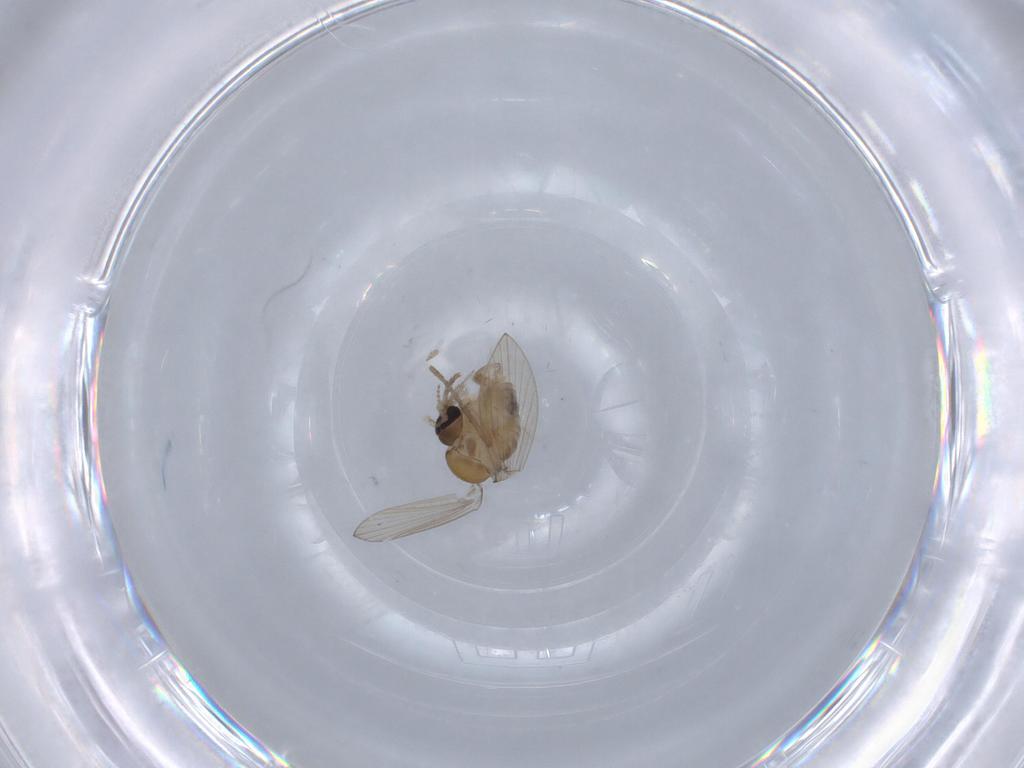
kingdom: Animalia
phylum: Arthropoda
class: Insecta
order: Diptera
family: Psychodidae
